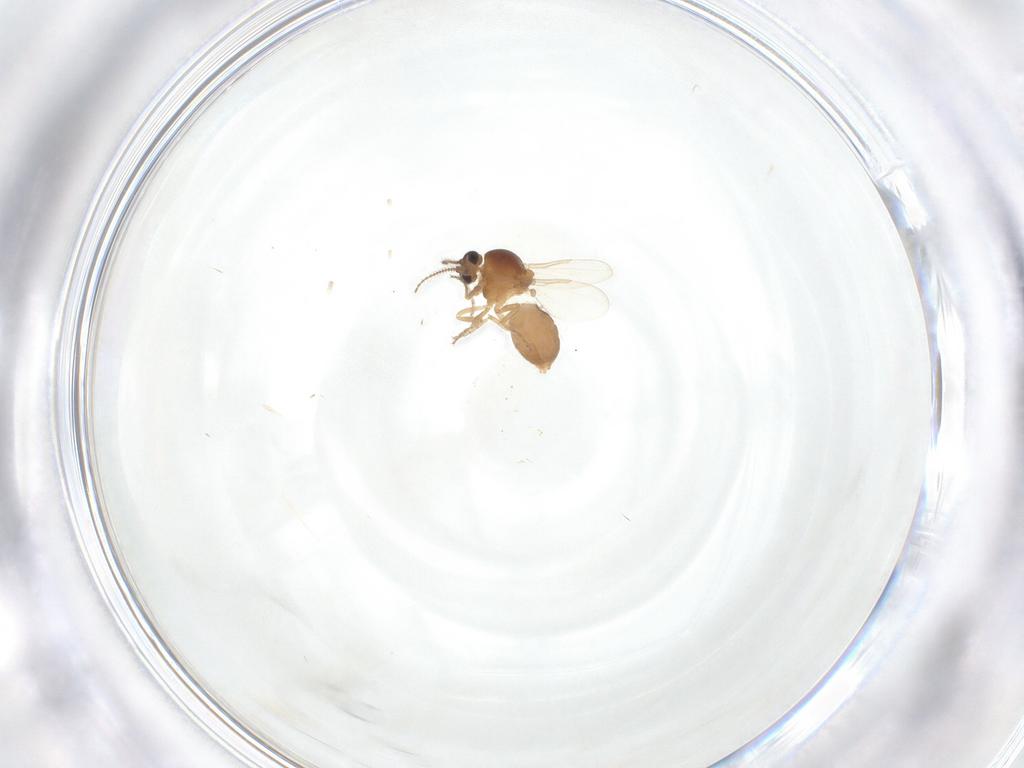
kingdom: Animalia
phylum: Arthropoda
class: Insecta
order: Diptera
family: Ceratopogonidae
